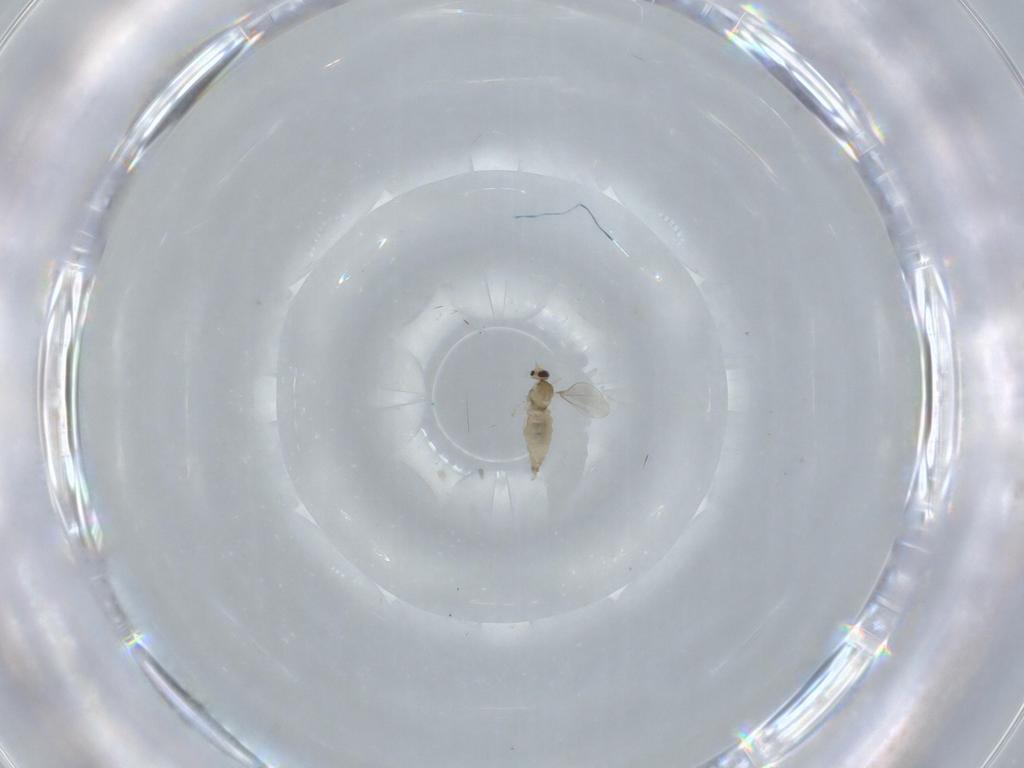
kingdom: Animalia
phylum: Arthropoda
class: Insecta
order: Diptera
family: Cecidomyiidae
